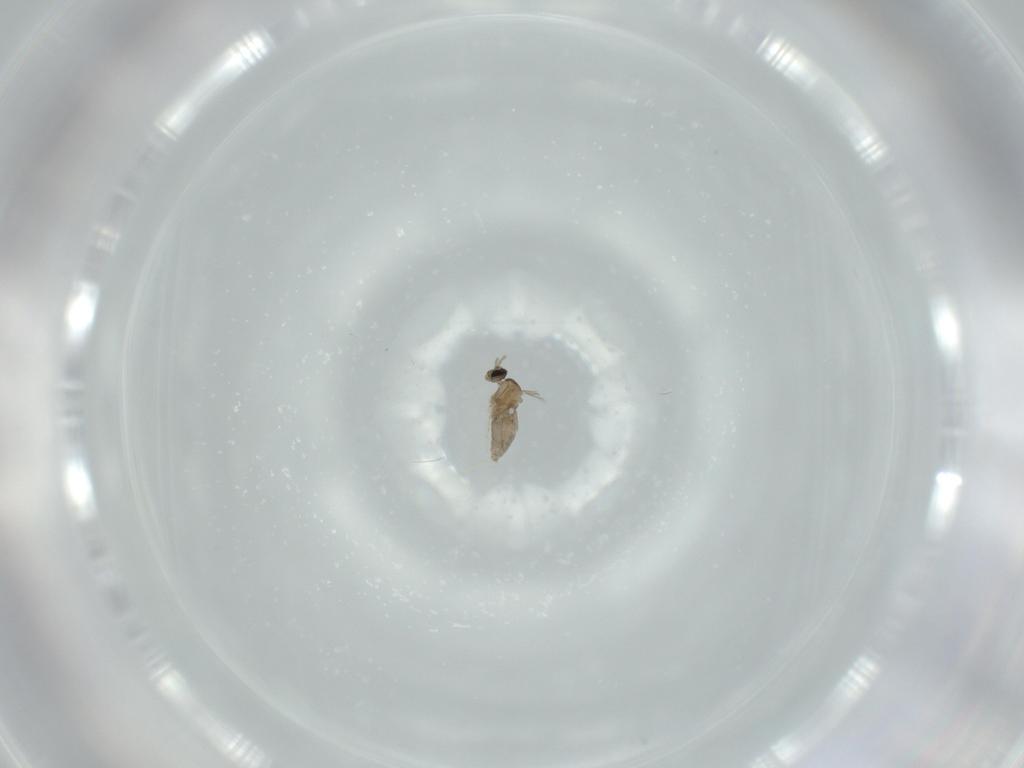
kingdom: Animalia
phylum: Arthropoda
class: Insecta
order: Diptera
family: Cecidomyiidae
